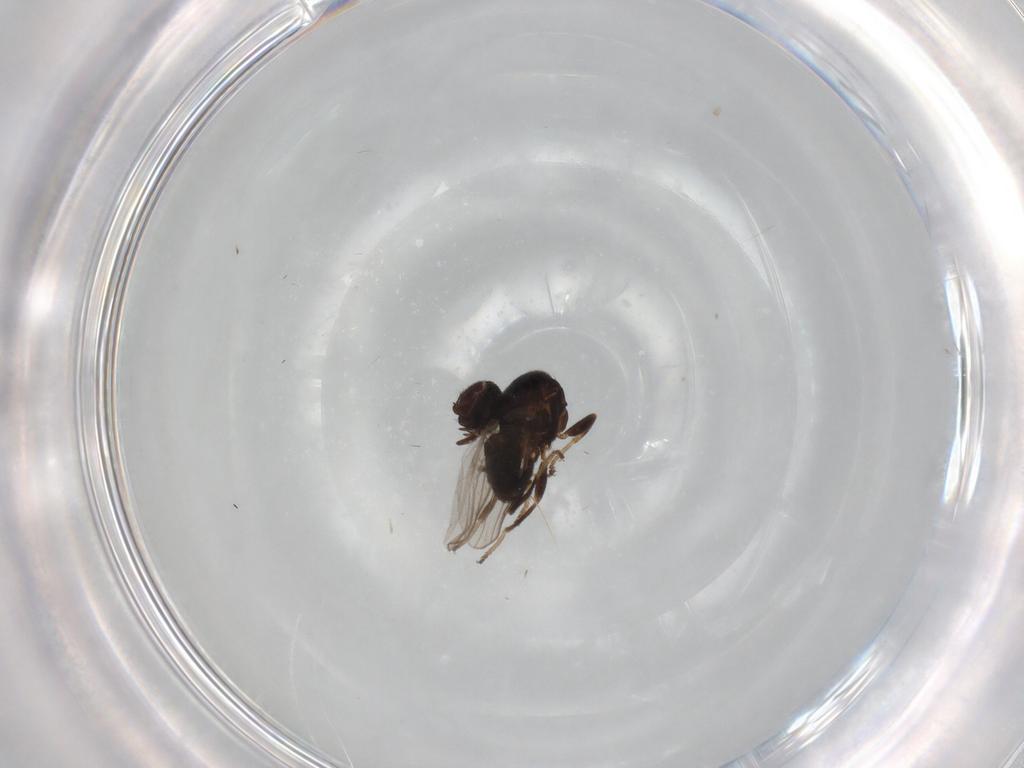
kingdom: Animalia
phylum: Arthropoda
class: Insecta
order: Diptera
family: Chloropidae
